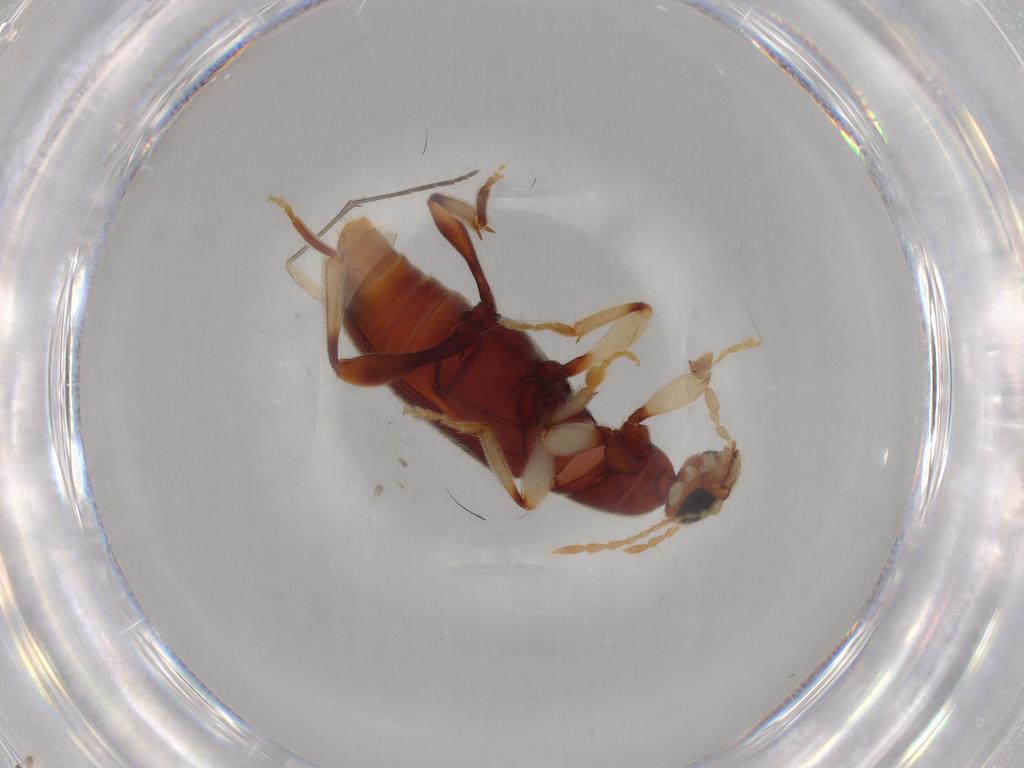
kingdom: Animalia
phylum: Arthropoda
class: Insecta
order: Coleoptera
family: Anthicidae
